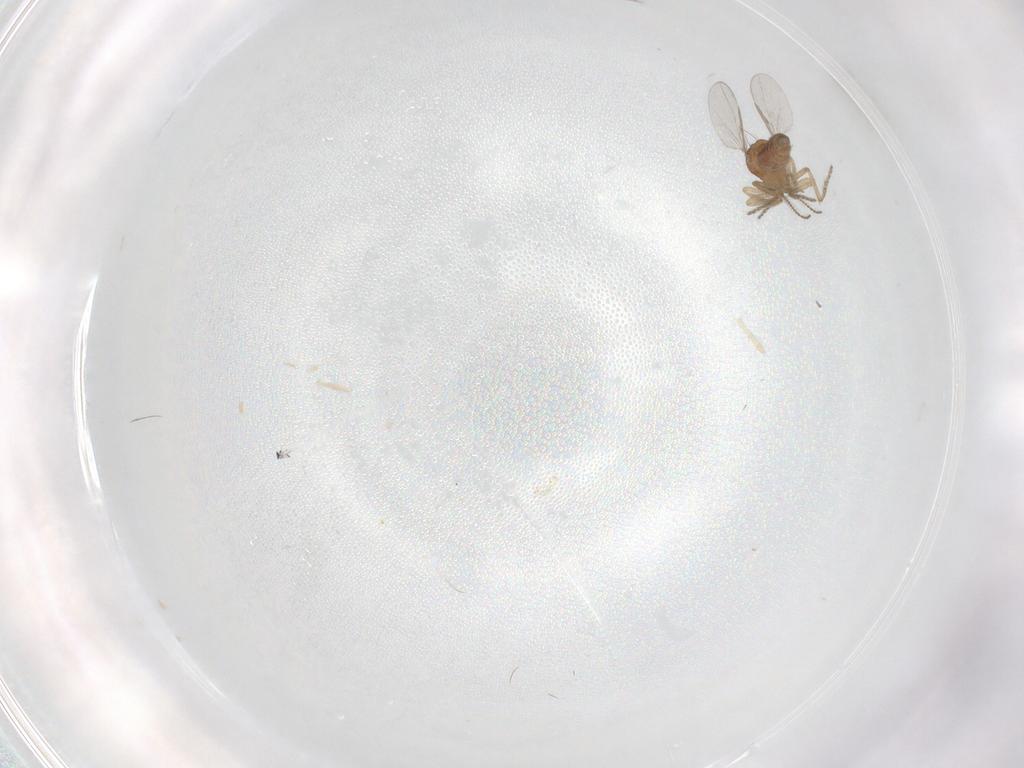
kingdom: Animalia
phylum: Arthropoda
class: Insecta
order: Diptera
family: Ceratopogonidae
